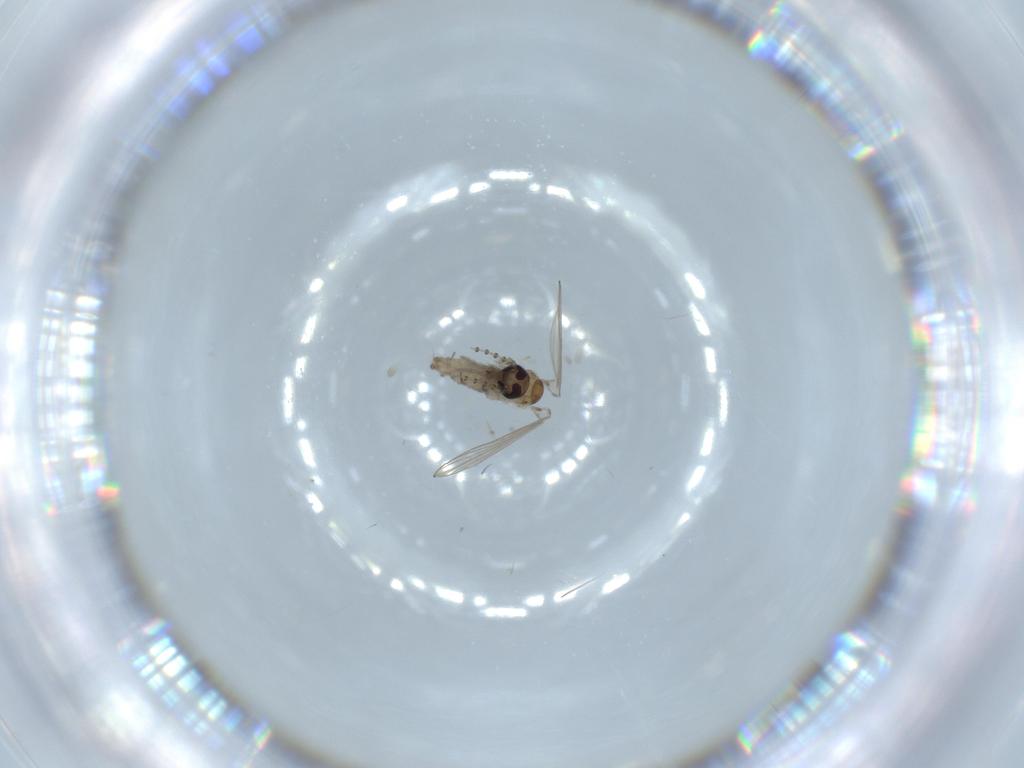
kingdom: Animalia
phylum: Arthropoda
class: Insecta
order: Diptera
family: Psychodidae
